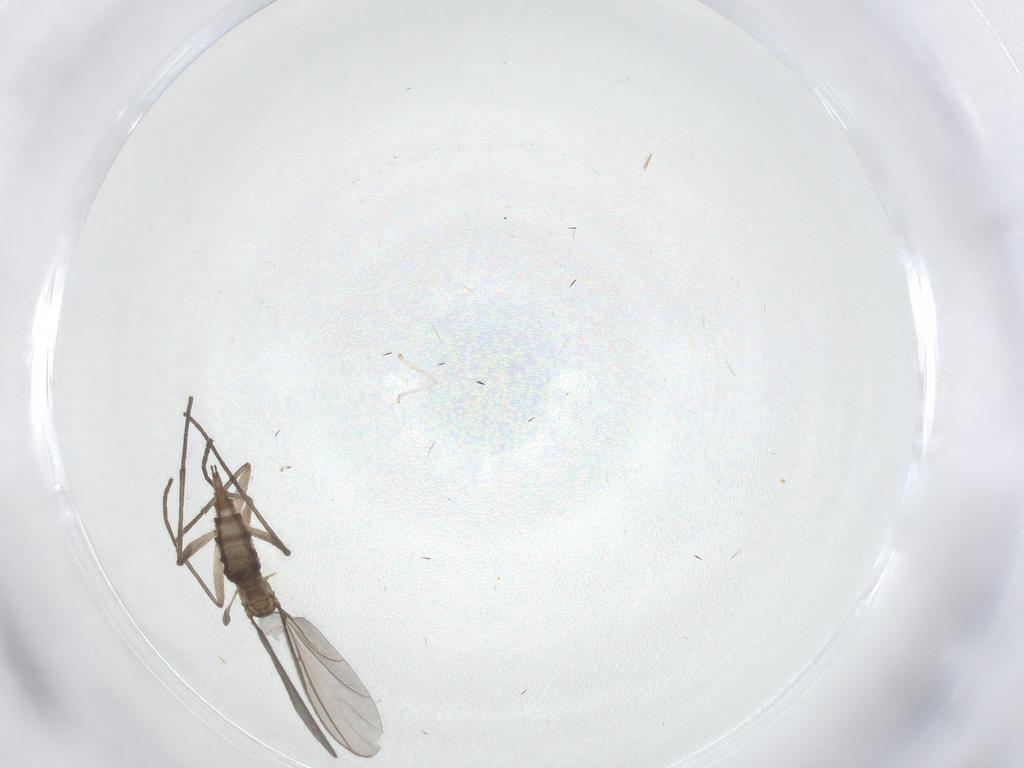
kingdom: Animalia
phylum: Arthropoda
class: Insecta
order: Diptera
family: Cecidomyiidae
